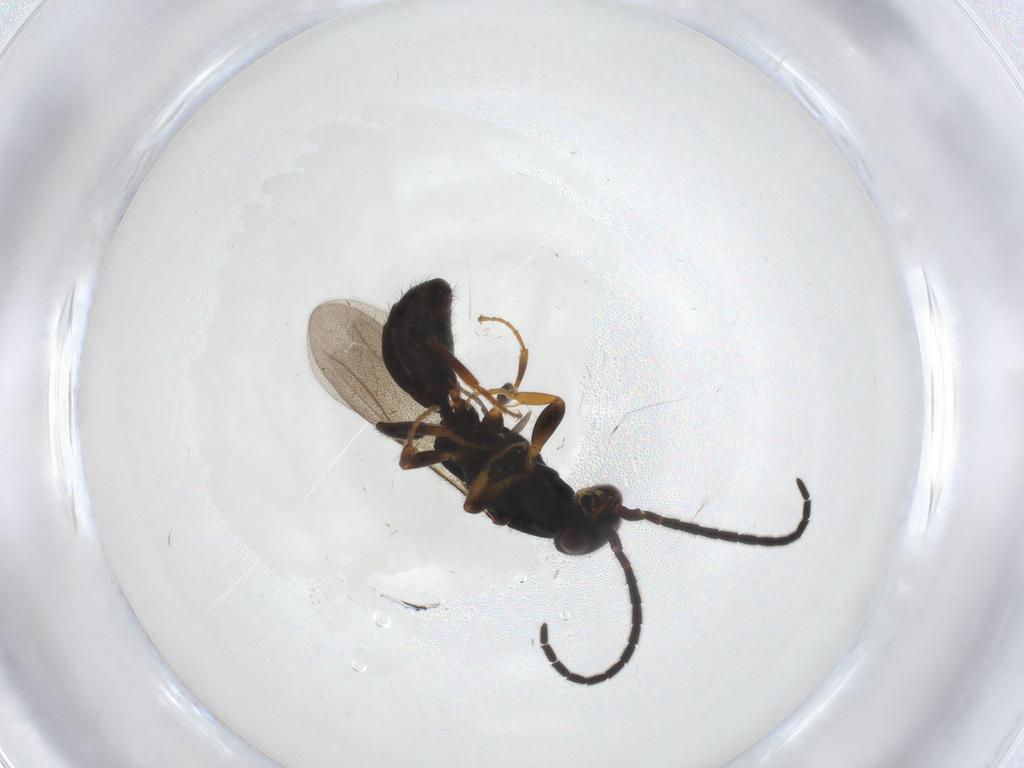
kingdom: Animalia
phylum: Arthropoda
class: Insecta
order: Hymenoptera
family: Bethylidae
